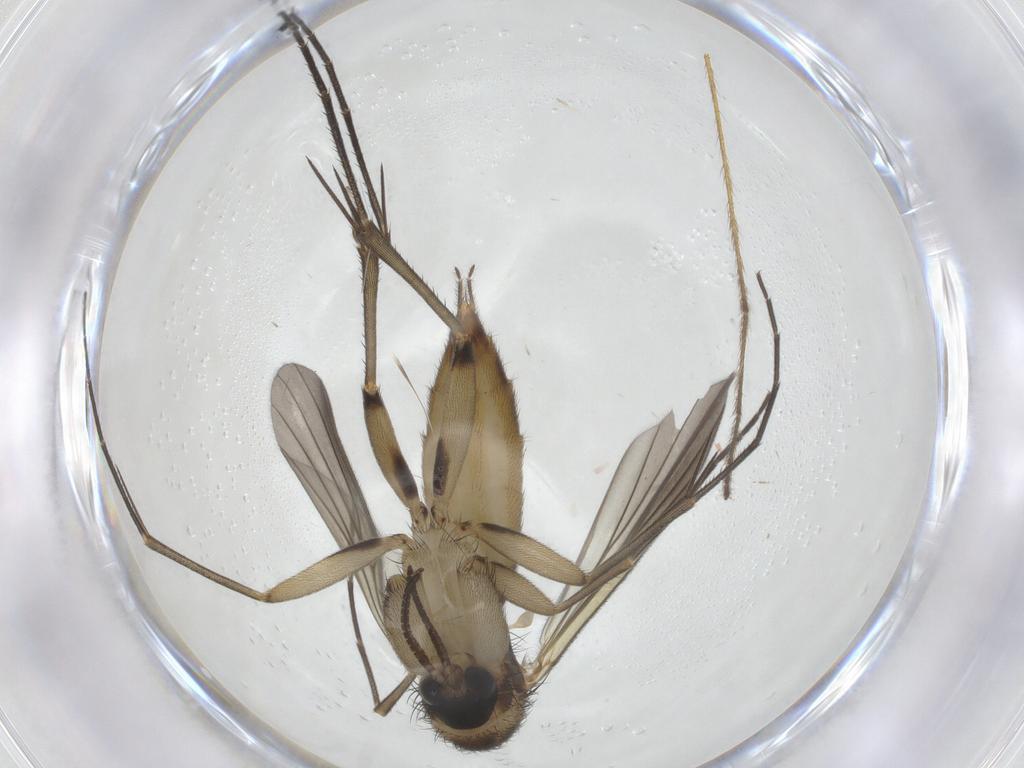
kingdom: Animalia
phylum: Arthropoda
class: Insecta
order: Diptera
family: Mycetophilidae
